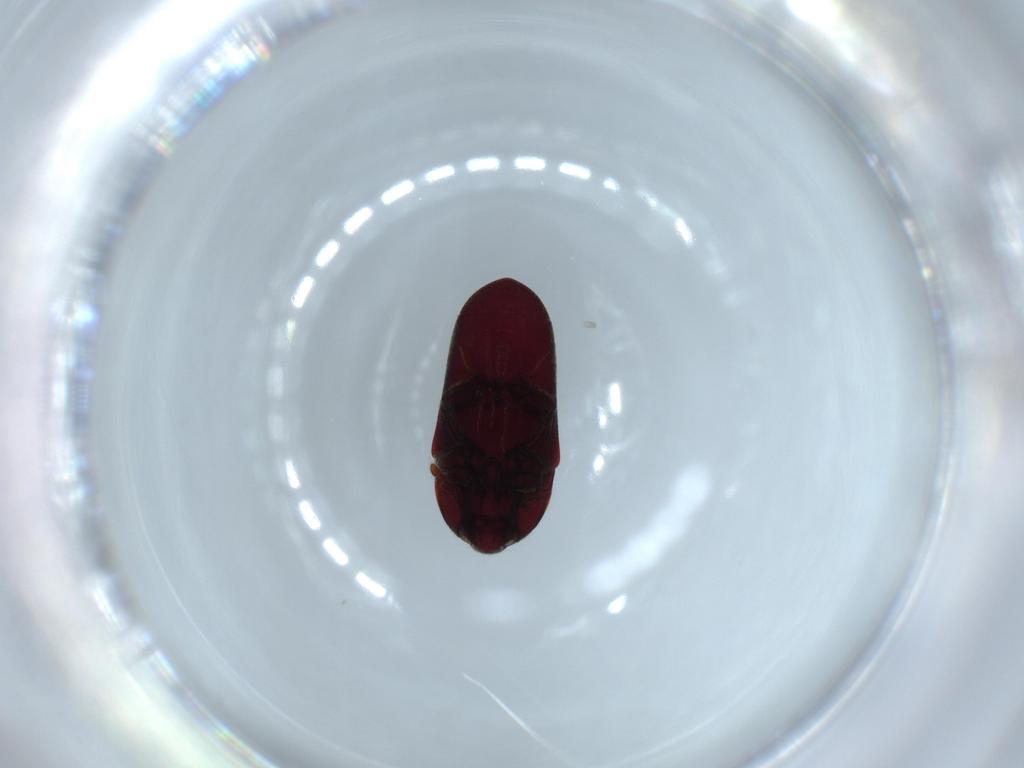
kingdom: Animalia
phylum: Arthropoda
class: Insecta
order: Coleoptera
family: Throscidae
